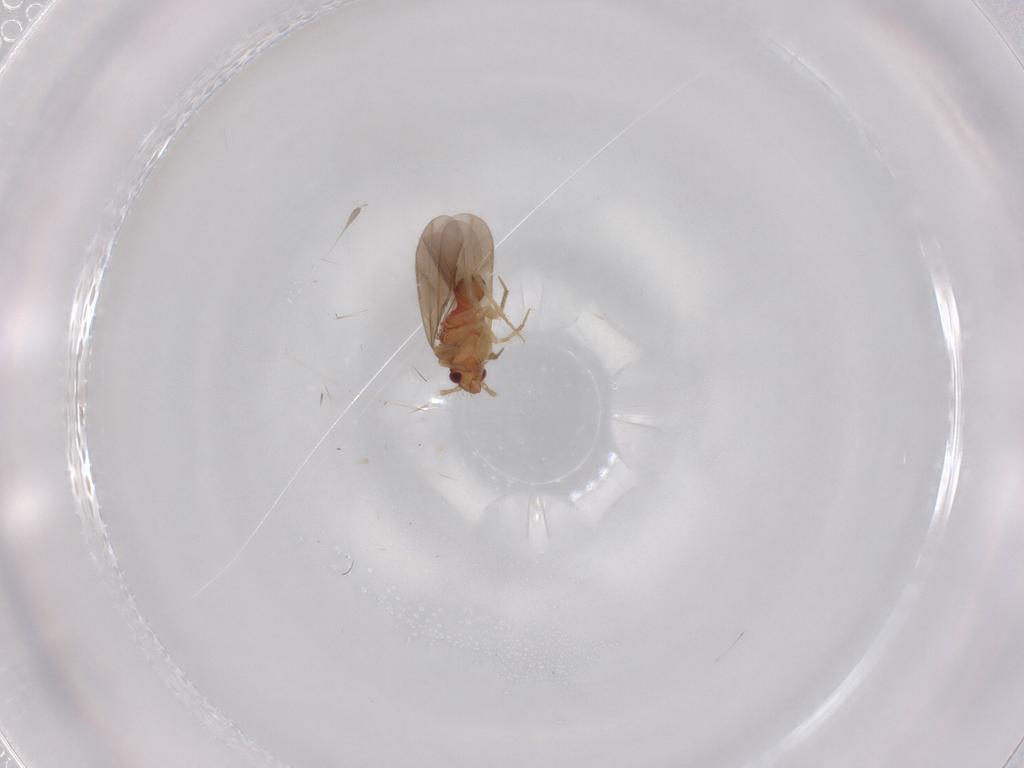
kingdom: Animalia
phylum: Arthropoda
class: Insecta
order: Hemiptera
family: Ceratocombidae
